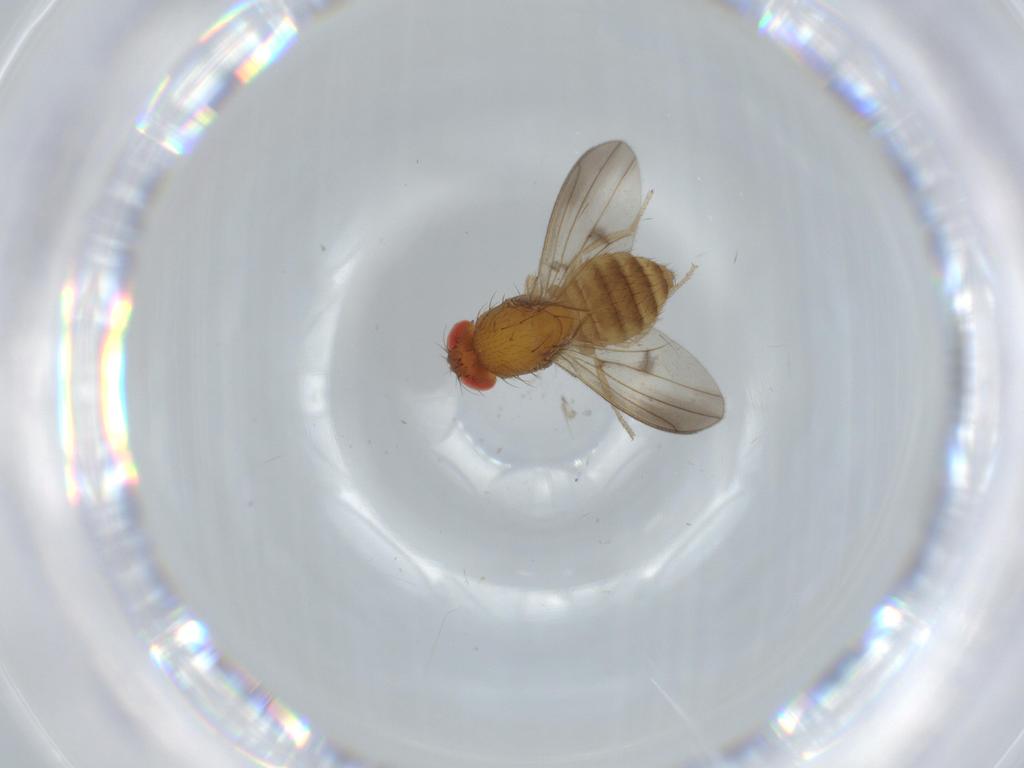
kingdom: Animalia
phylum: Arthropoda
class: Insecta
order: Diptera
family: Drosophilidae
